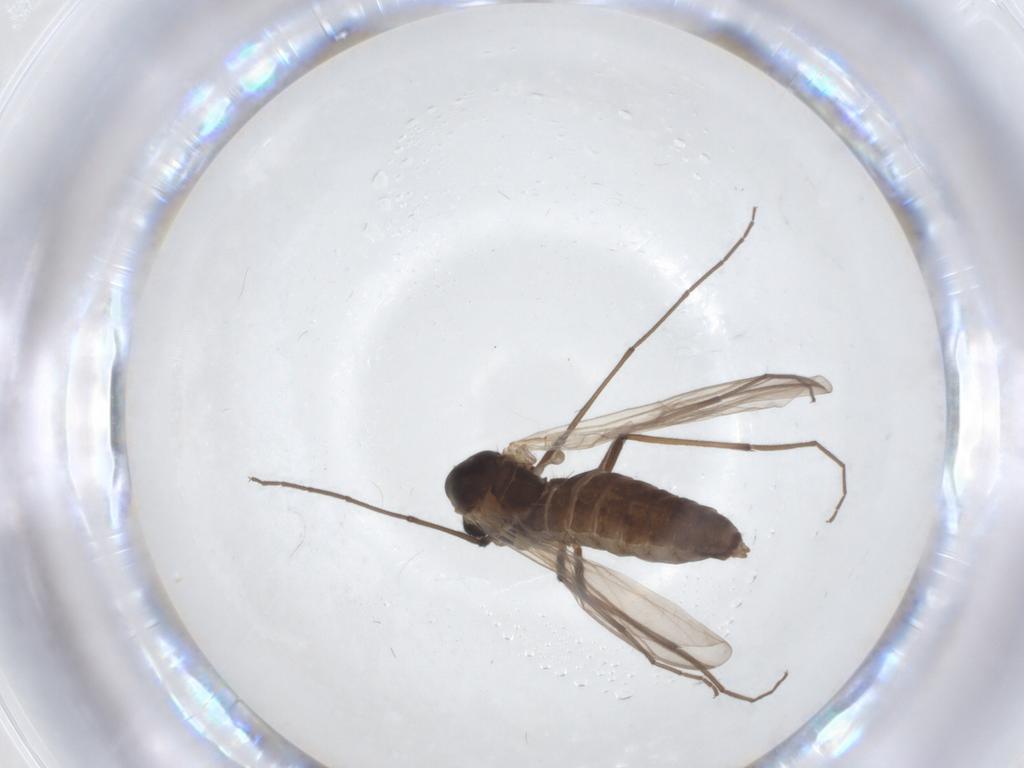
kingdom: Animalia
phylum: Arthropoda
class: Insecta
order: Diptera
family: Chironomidae
